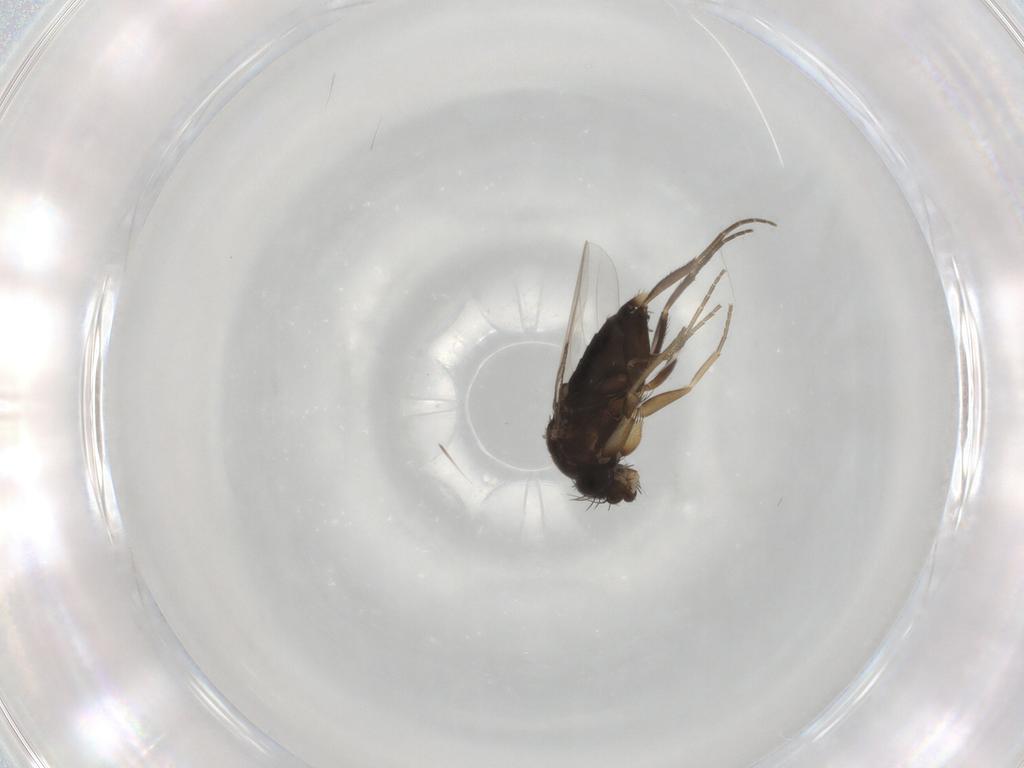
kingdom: Animalia
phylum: Arthropoda
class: Insecta
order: Diptera
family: Phoridae
